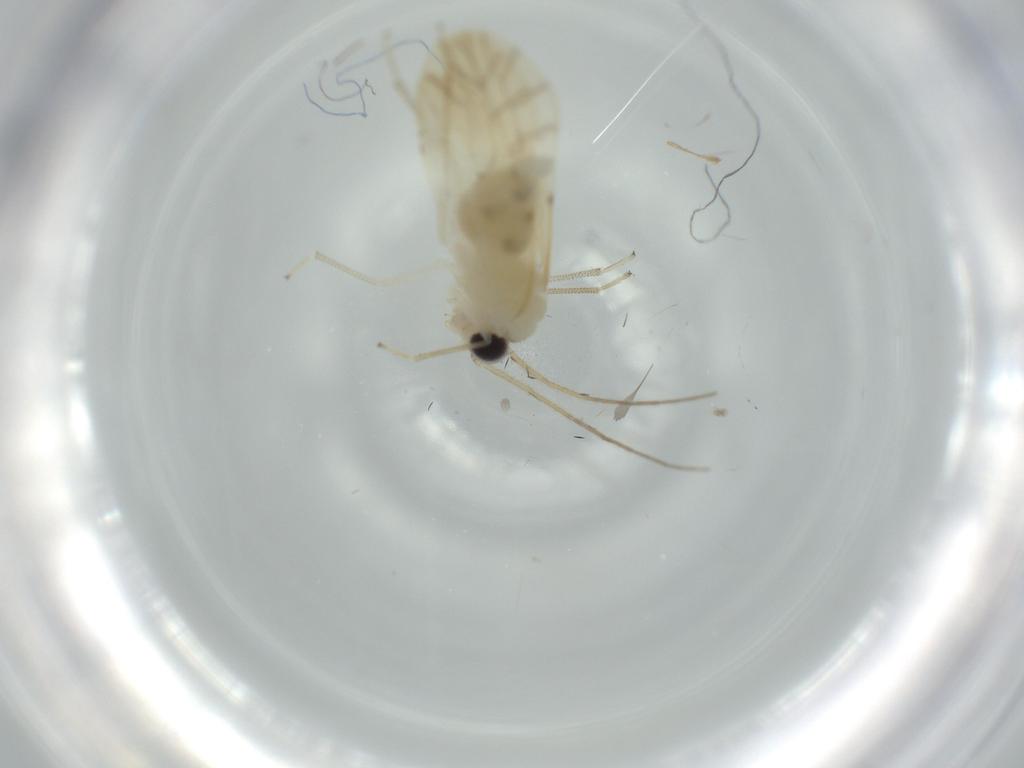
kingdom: Animalia
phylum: Arthropoda
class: Insecta
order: Psocodea
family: Caeciliusidae
